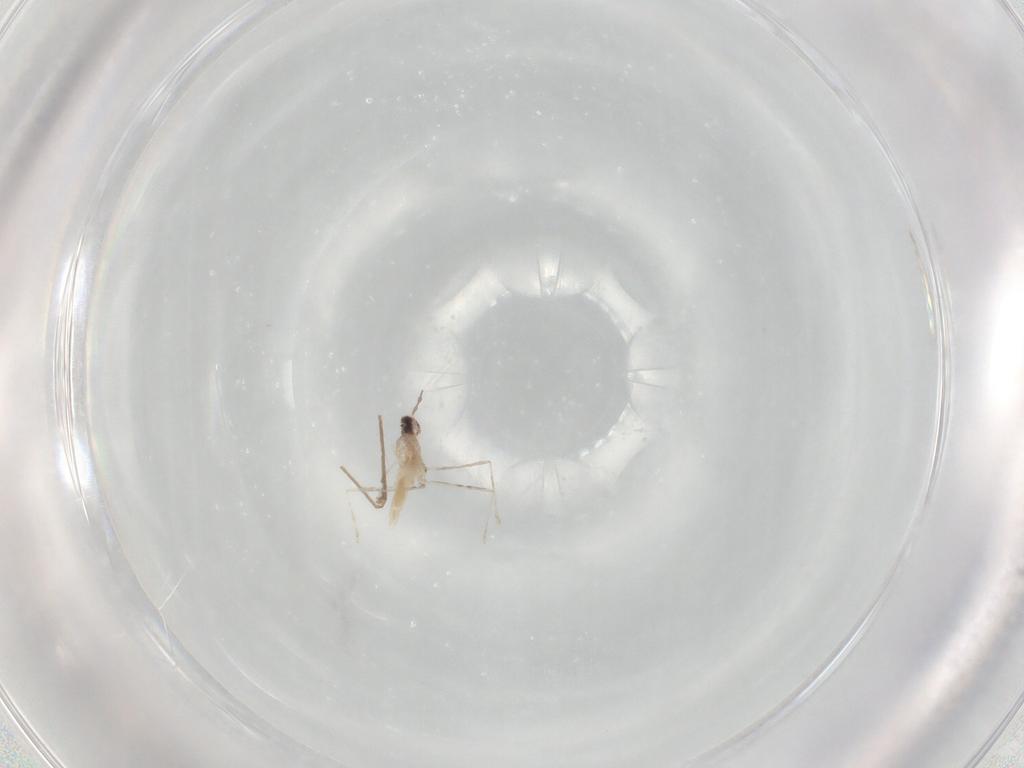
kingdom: Animalia
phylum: Arthropoda
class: Insecta
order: Diptera
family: Cecidomyiidae
